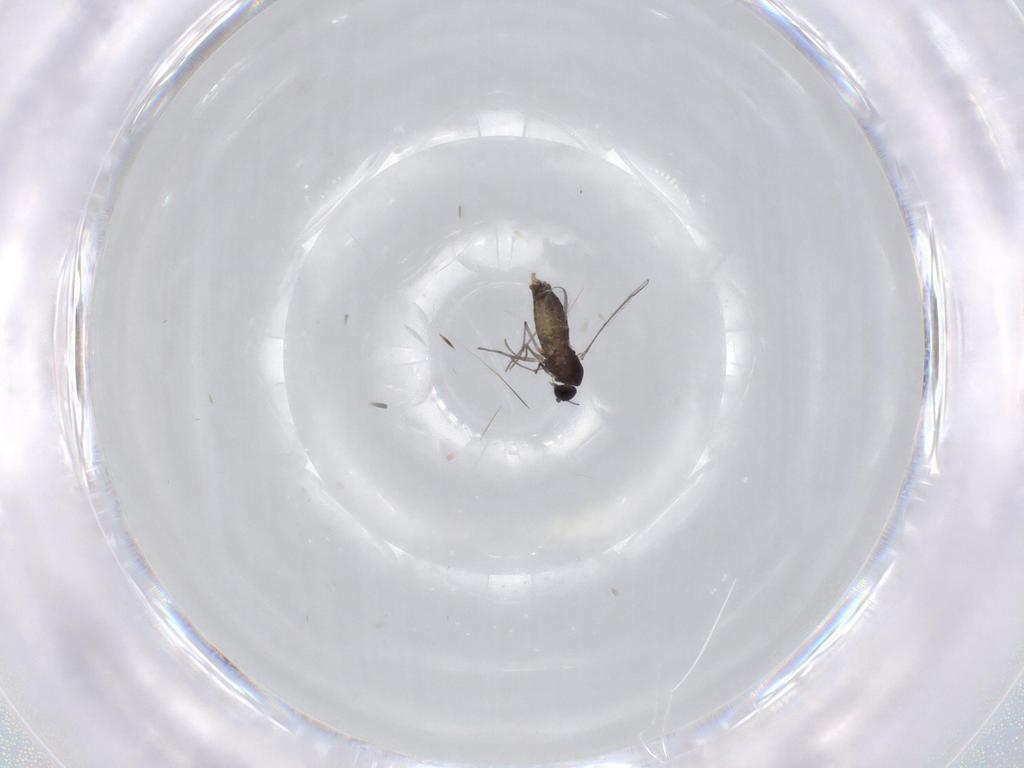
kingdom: Animalia
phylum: Arthropoda
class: Insecta
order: Diptera
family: Chironomidae
